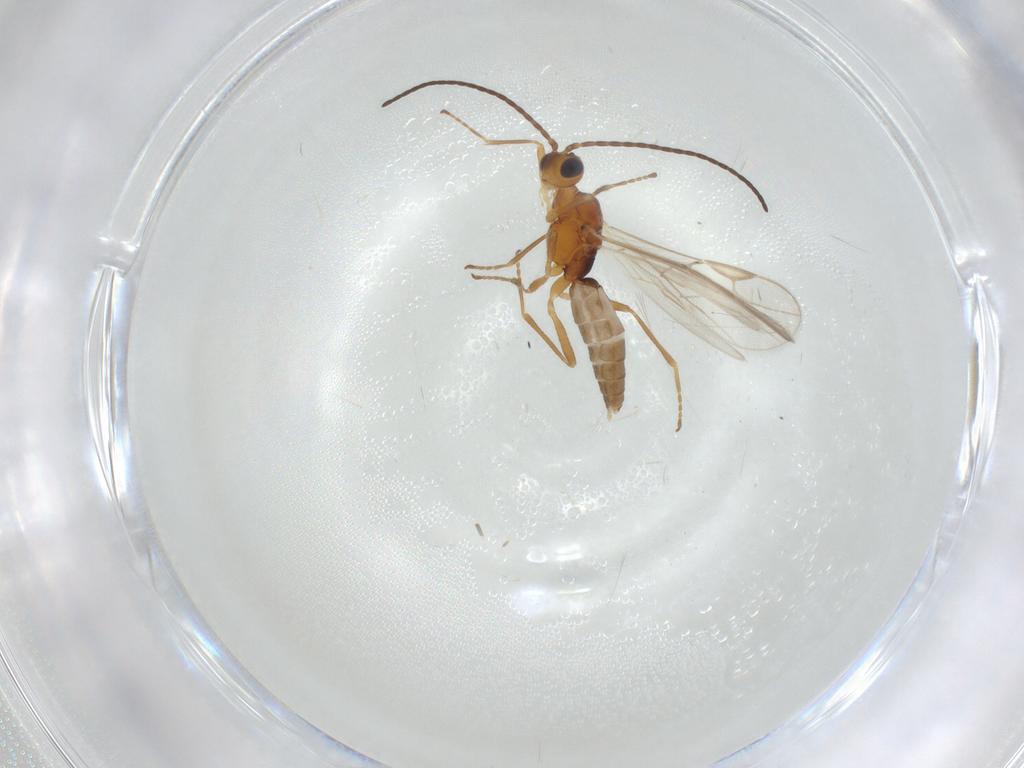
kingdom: Animalia
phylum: Arthropoda
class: Insecta
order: Hymenoptera
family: Braconidae
